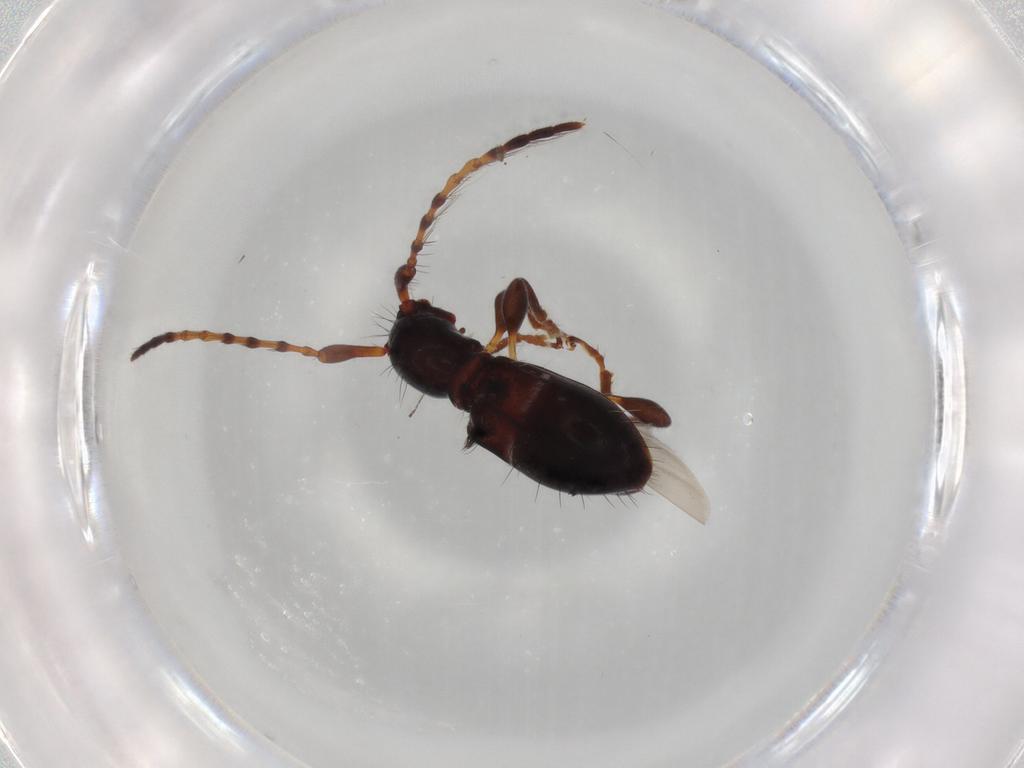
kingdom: Animalia
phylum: Arthropoda
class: Insecta
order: Coleoptera
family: Cerambycidae
